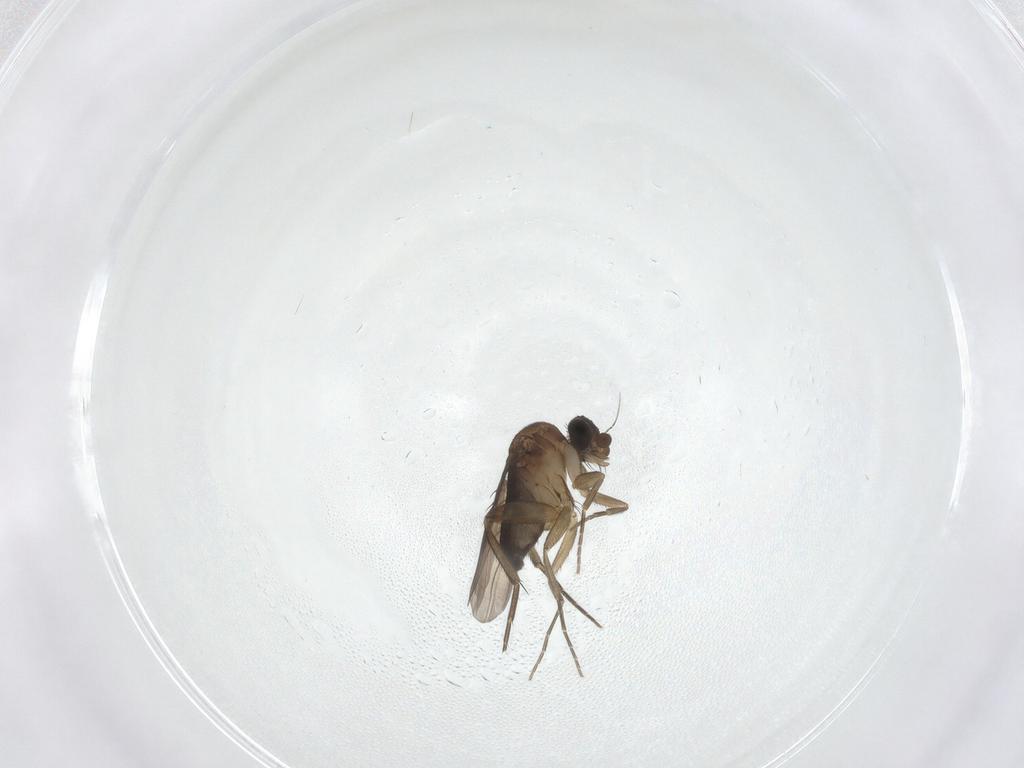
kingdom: Animalia
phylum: Arthropoda
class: Insecta
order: Diptera
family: Phoridae
